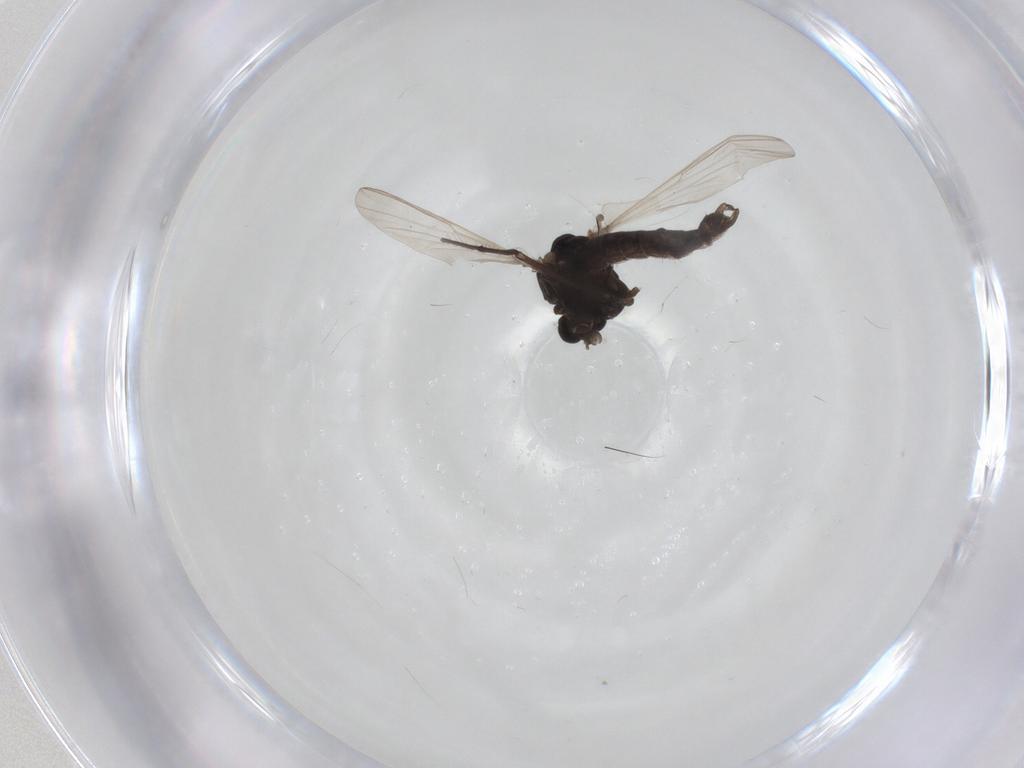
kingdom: Animalia
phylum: Arthropoda
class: Insecta
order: Diptera
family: Chironomidae
